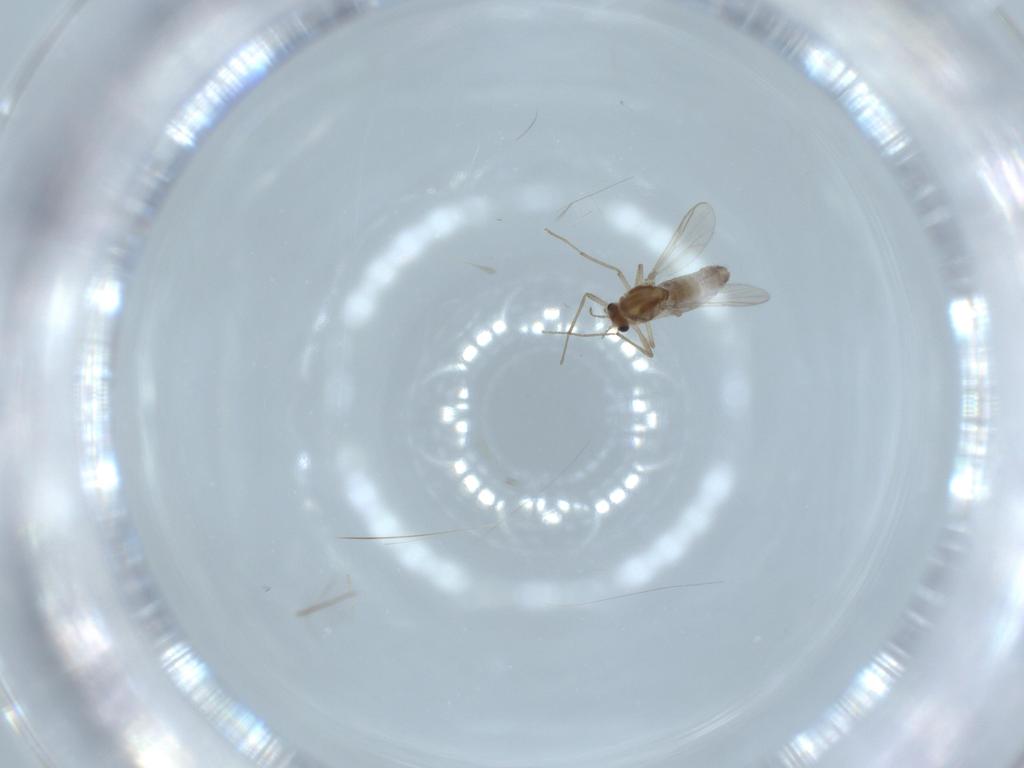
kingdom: Animalia
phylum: Arthropoda
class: Insecta
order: Diptera
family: Chironomidae
